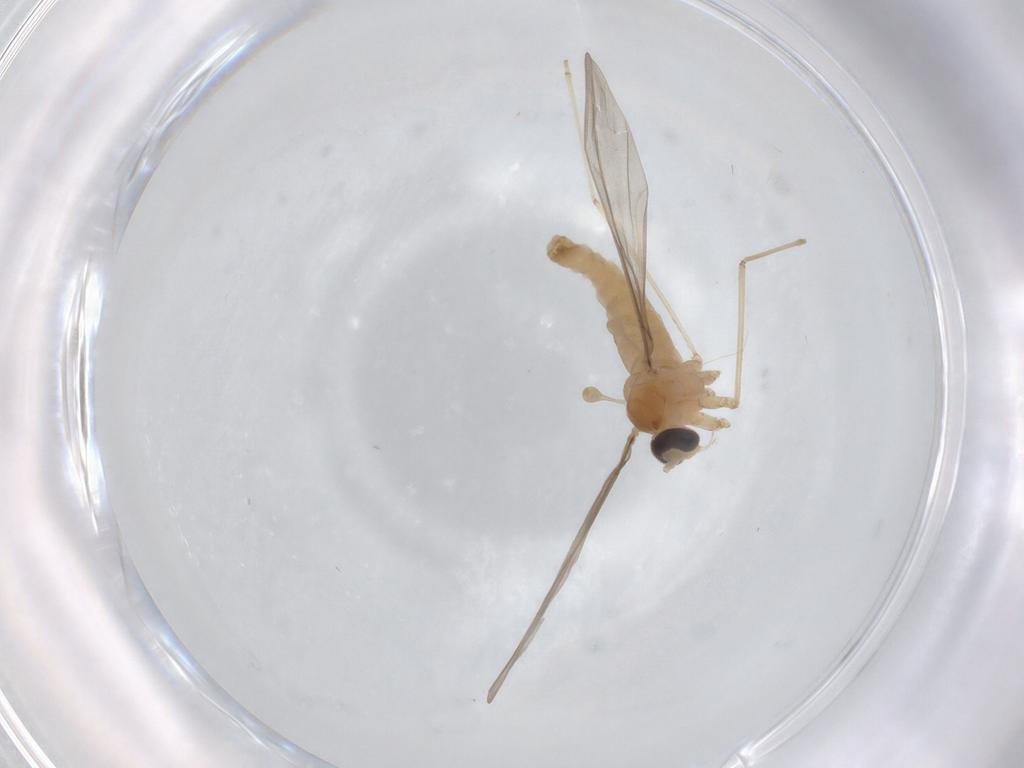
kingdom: Animalia
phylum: Arthropoda
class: Insecta
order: Diptera
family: Cecidomyiidae
